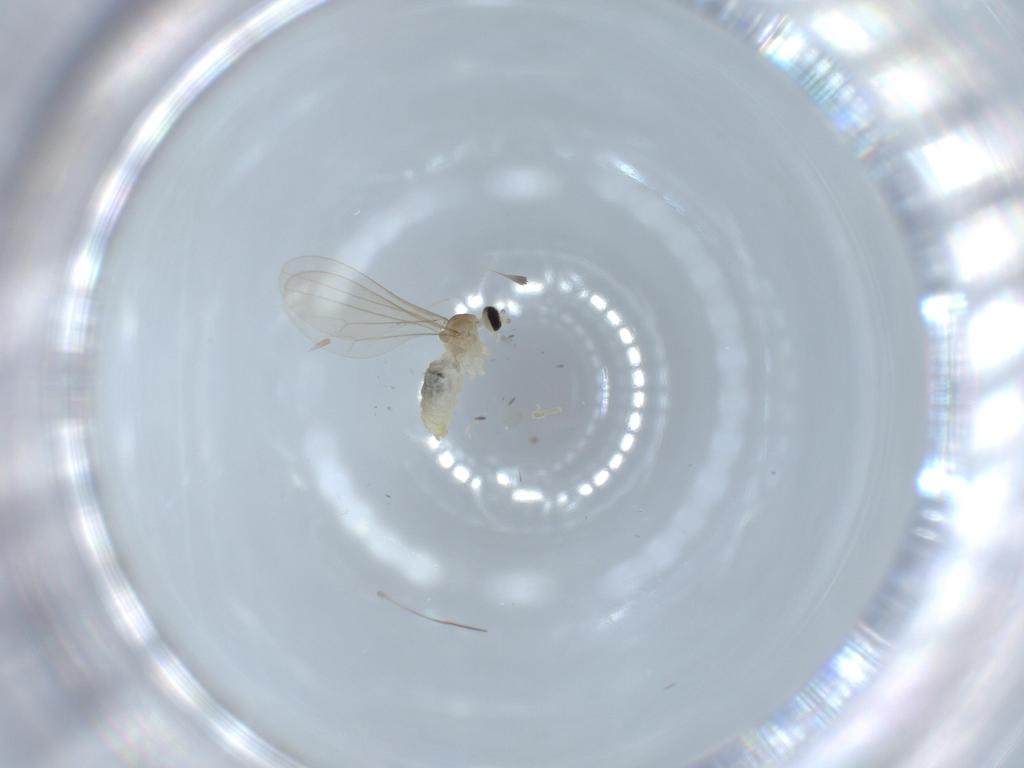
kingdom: Animalia
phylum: Arthropoda
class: Insecta
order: Diptera
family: Cecidomyiidae
